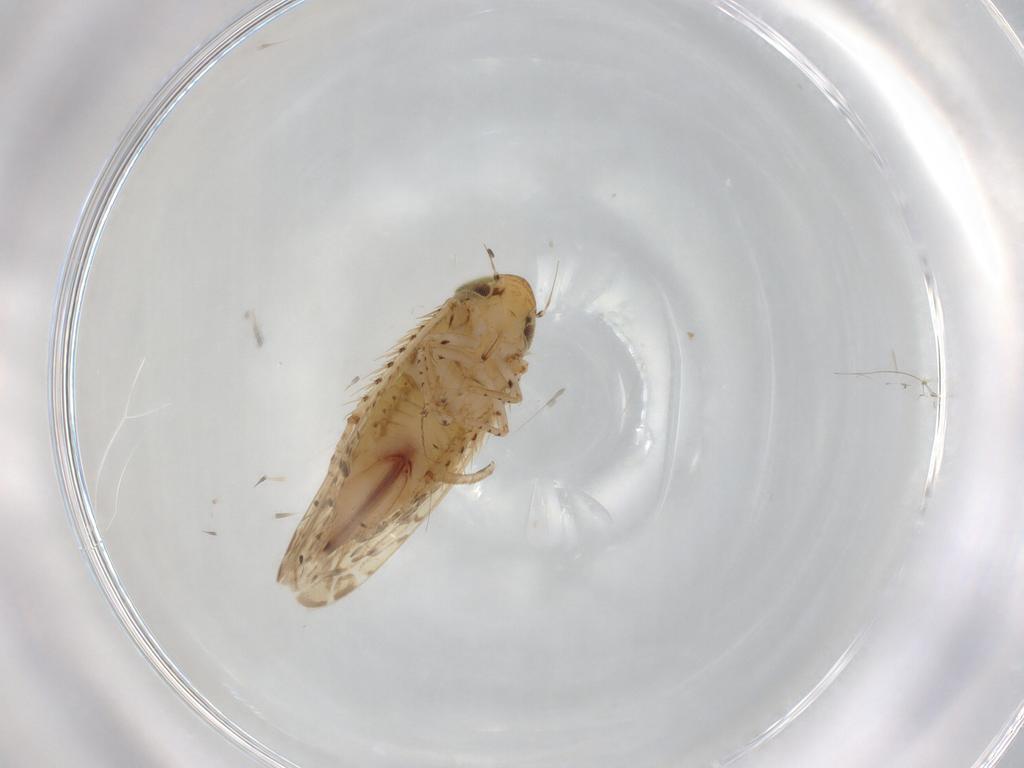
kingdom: Animalia
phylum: Arthropoda
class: Insecta
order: Hemiptera
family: Cicadellidae
